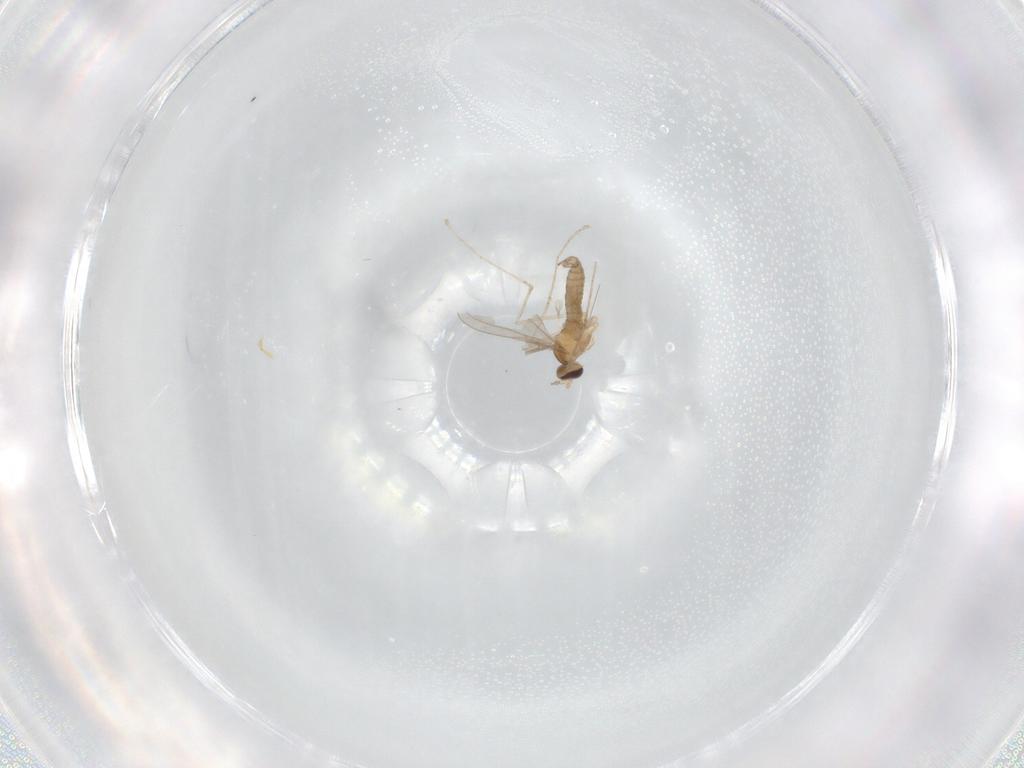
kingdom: Animalia
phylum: Arthropoda
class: Insecta
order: Diptera
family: Cecidomyiidae
